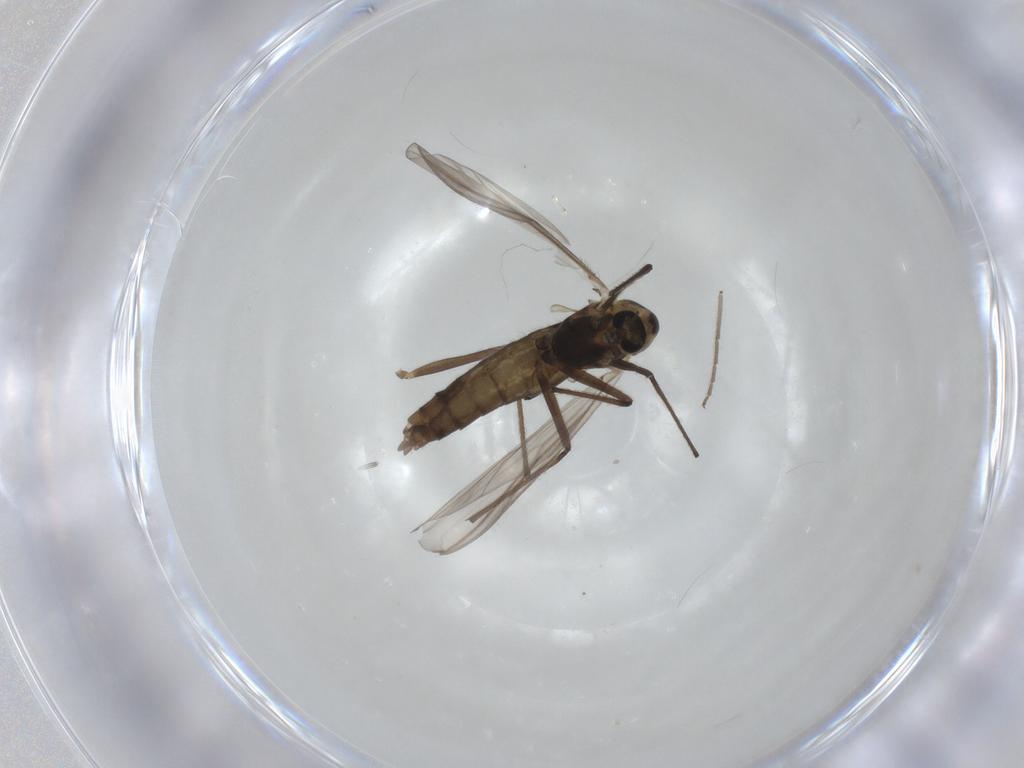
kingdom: Animalia
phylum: Arthropoda
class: Insecta
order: Diptera
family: Chironomidae
